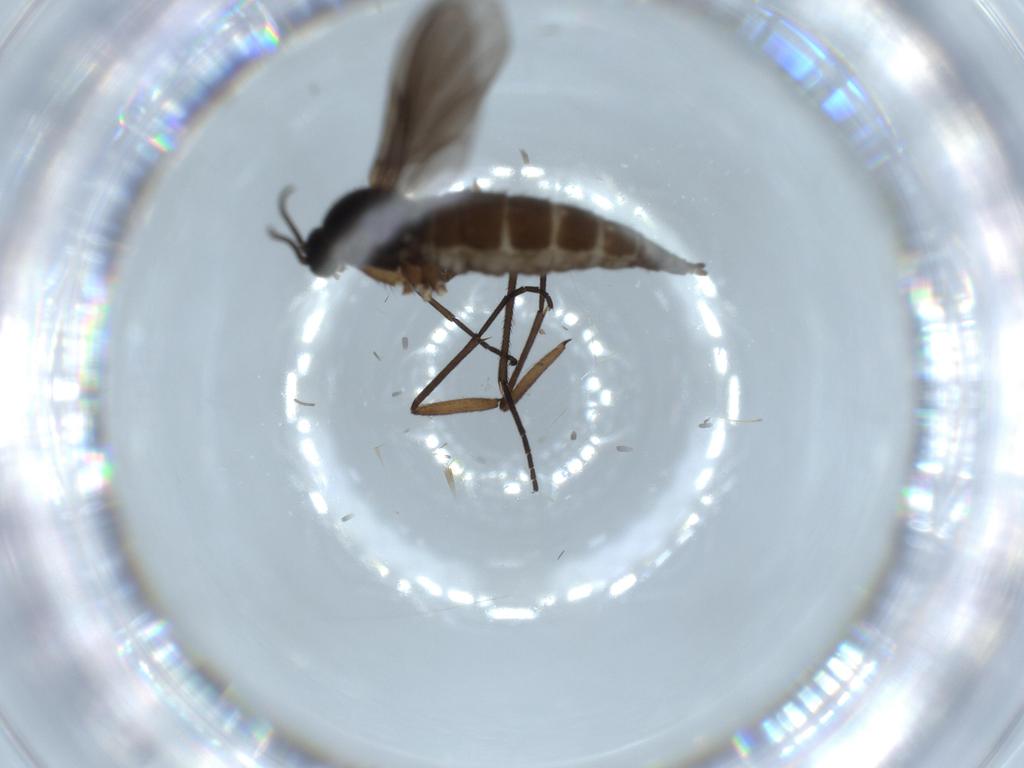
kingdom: Animalia
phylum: Arthropoda
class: Insecta
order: Diptera
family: Sciaridae
